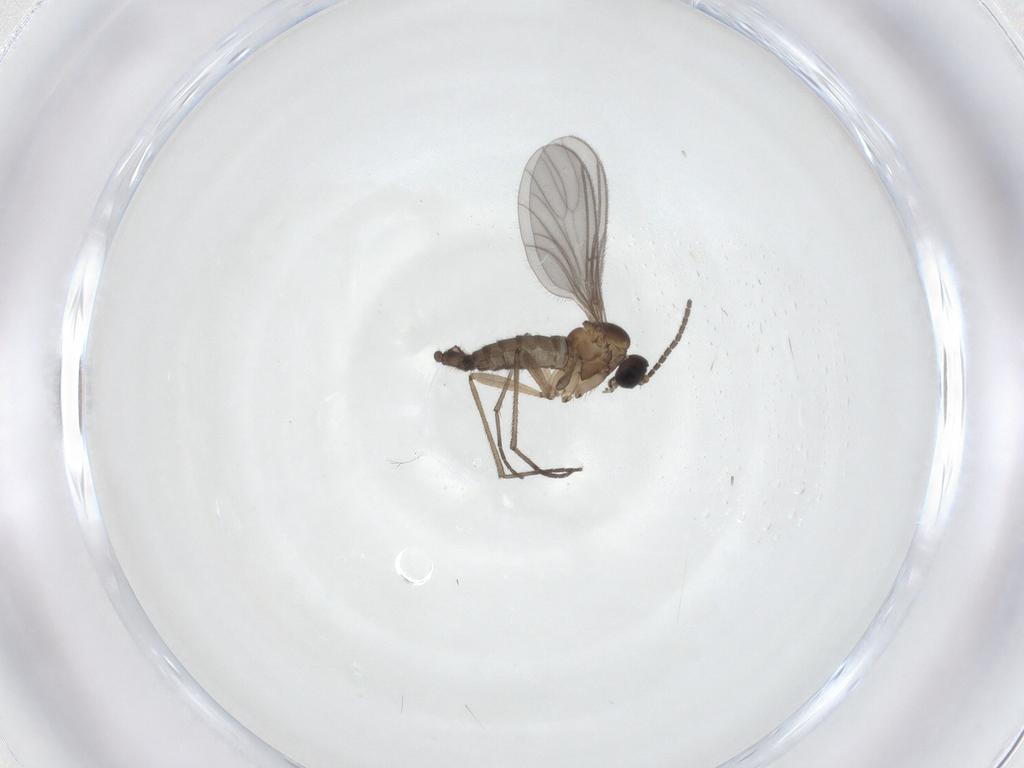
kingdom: Animalia
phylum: Arthropoda
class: Insecta
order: Diptera
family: Sciaridae
